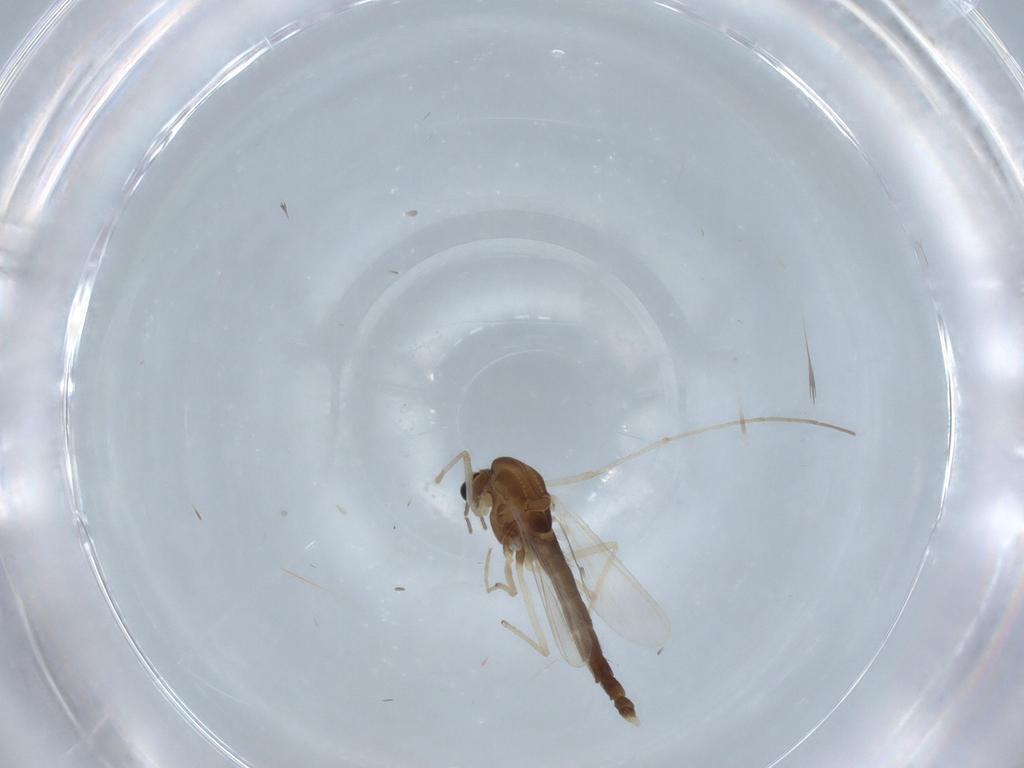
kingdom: Animalia
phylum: Arthropoda
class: Insecta
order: Diptera
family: Chironomidae
